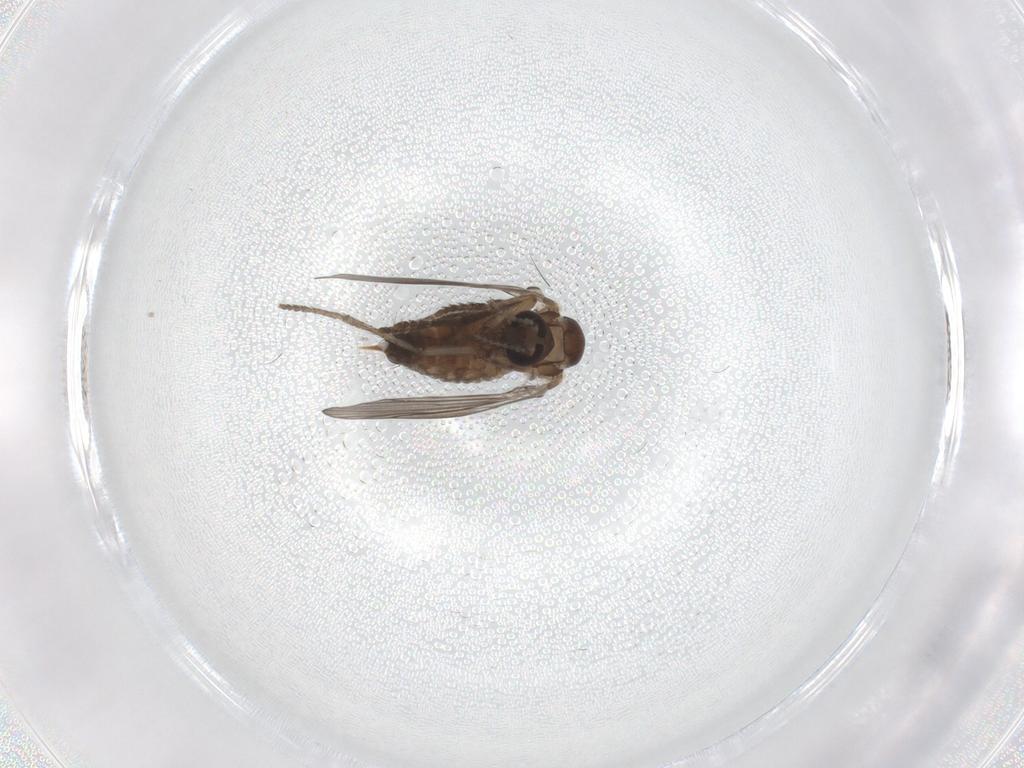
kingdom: Animalia
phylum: Arthropoda
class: Insecta
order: Diptera
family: Psychodidae
